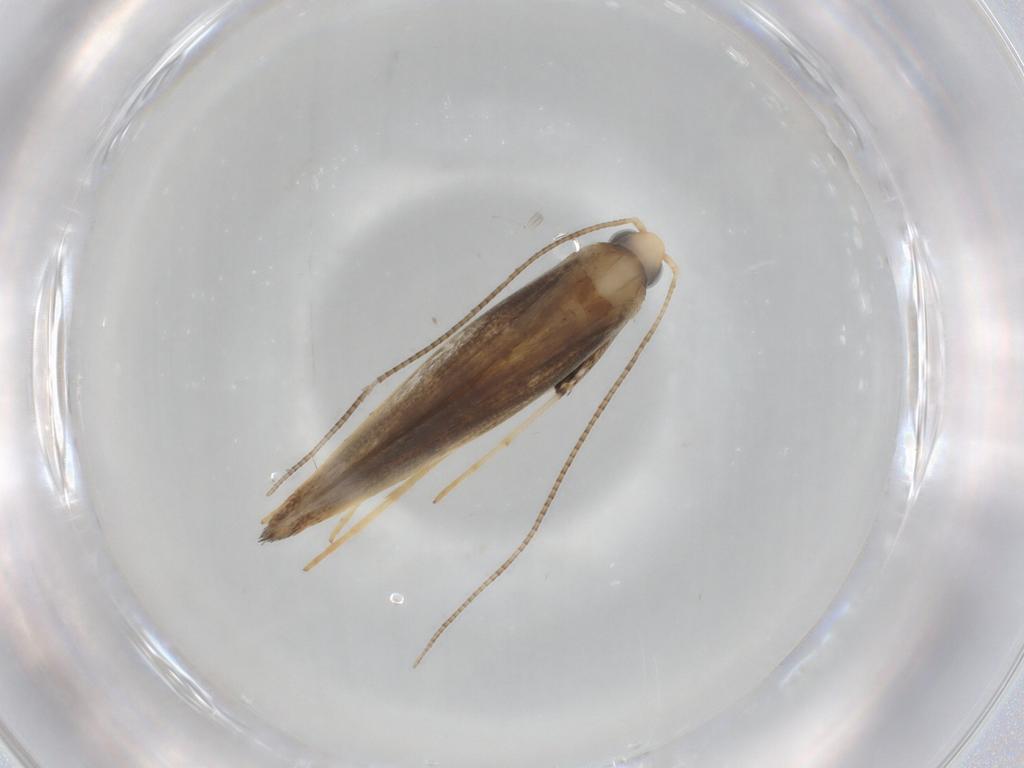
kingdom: Animalia
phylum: Arthropoda
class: Insecta
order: Lepidoptera
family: Gracillariidae
